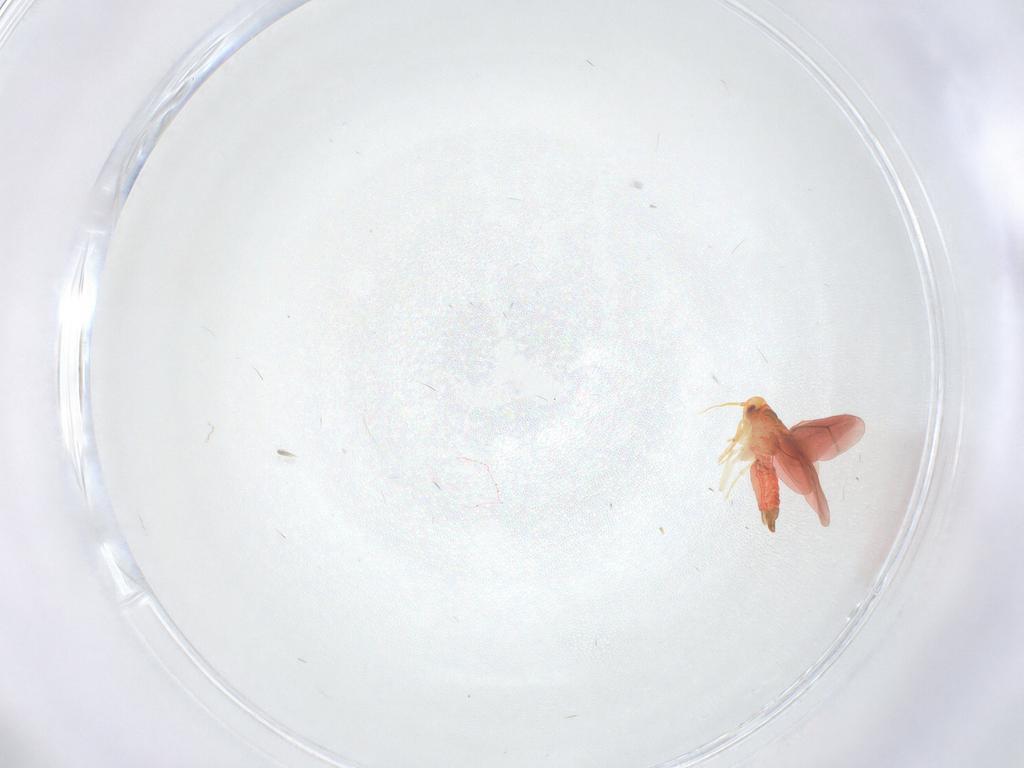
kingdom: Animalia
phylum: Arthropoda
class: Insecta
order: Hemiptera
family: Aleyrodidae
